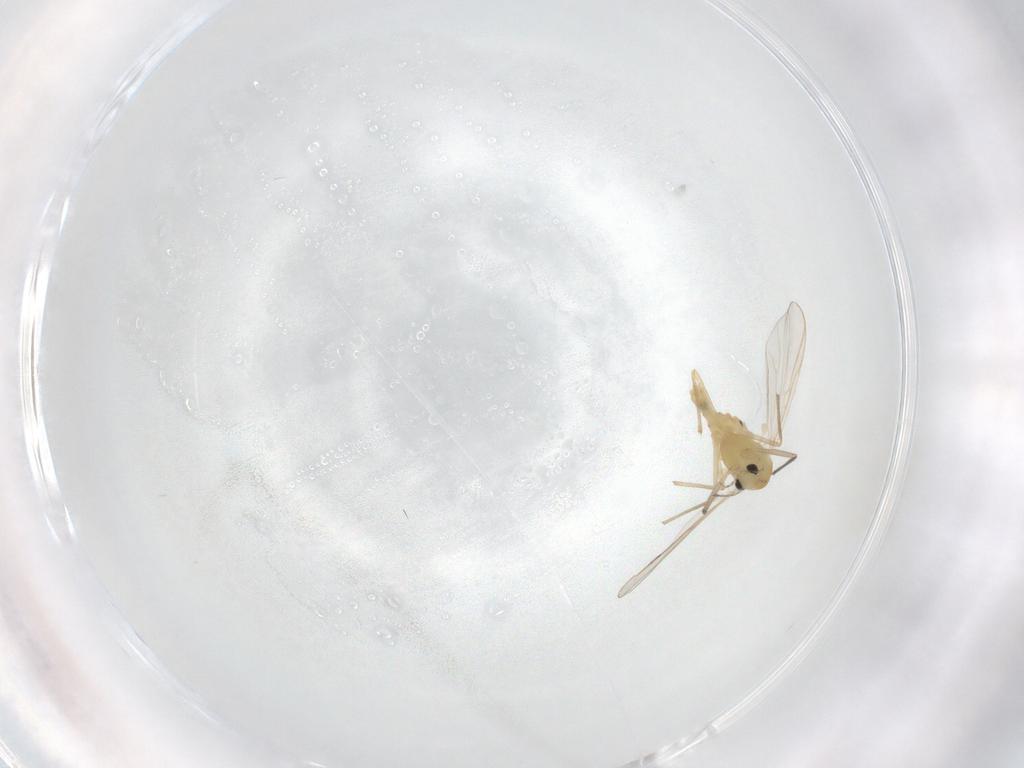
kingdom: Animalia
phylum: Arthropoda
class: Insecta
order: Diptera
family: Chironomidae
